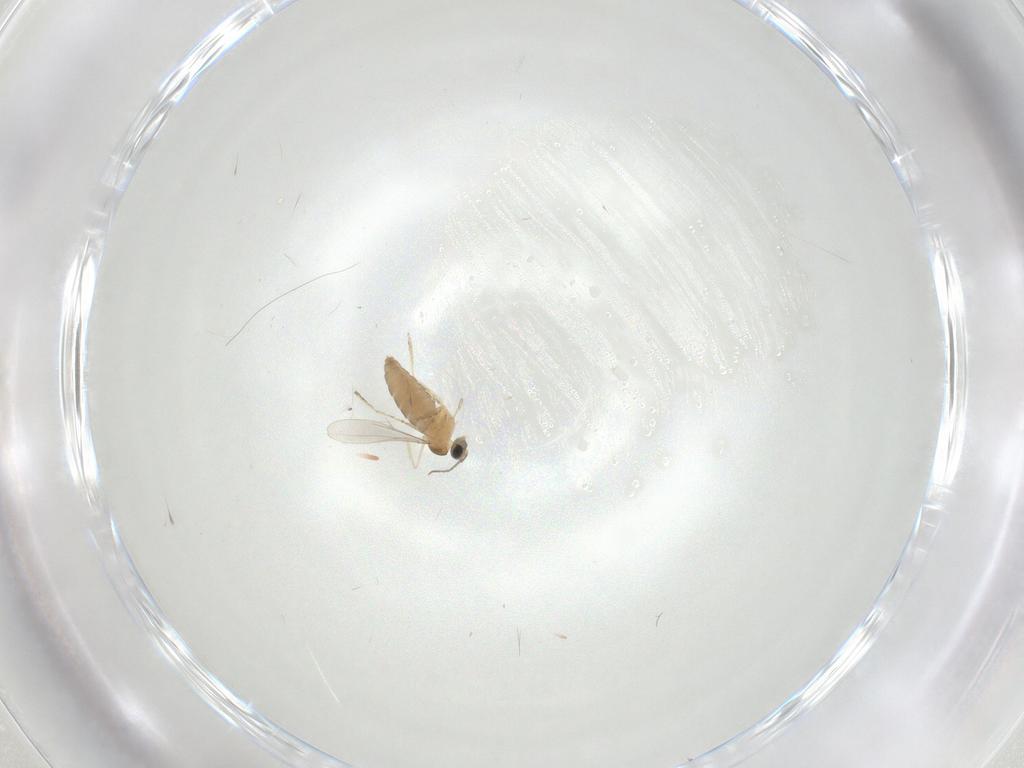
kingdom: Animalia
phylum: Arthropoda
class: Insecta
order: Diptera
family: Cecidomyiidae
